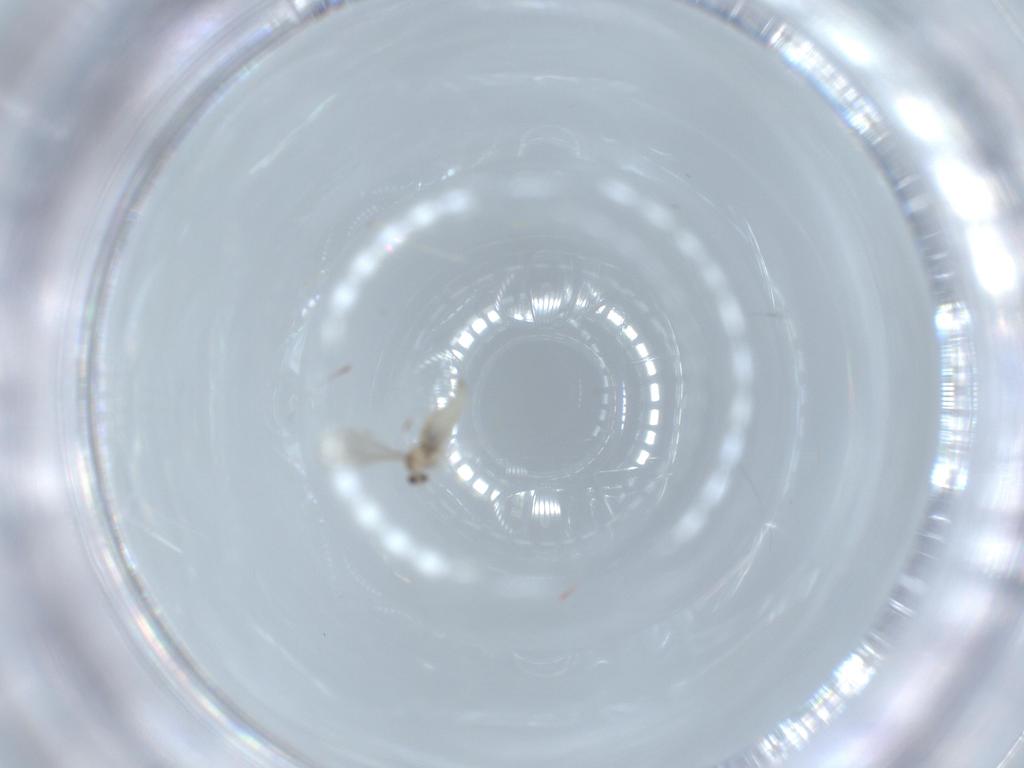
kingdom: Animalia
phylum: Arthropoda
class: Insecta
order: Diptera
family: Cecidomyiidae
